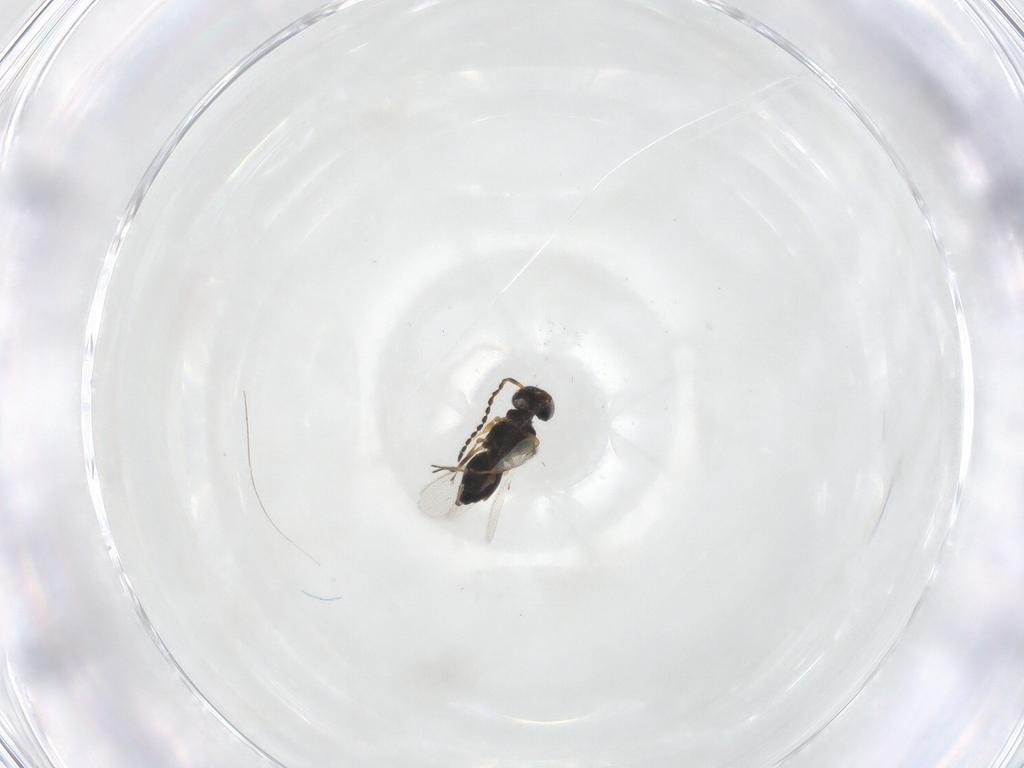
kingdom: Animalia
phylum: Arthropoda
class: Insecta
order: Hymenoptera
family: Scelionidae
